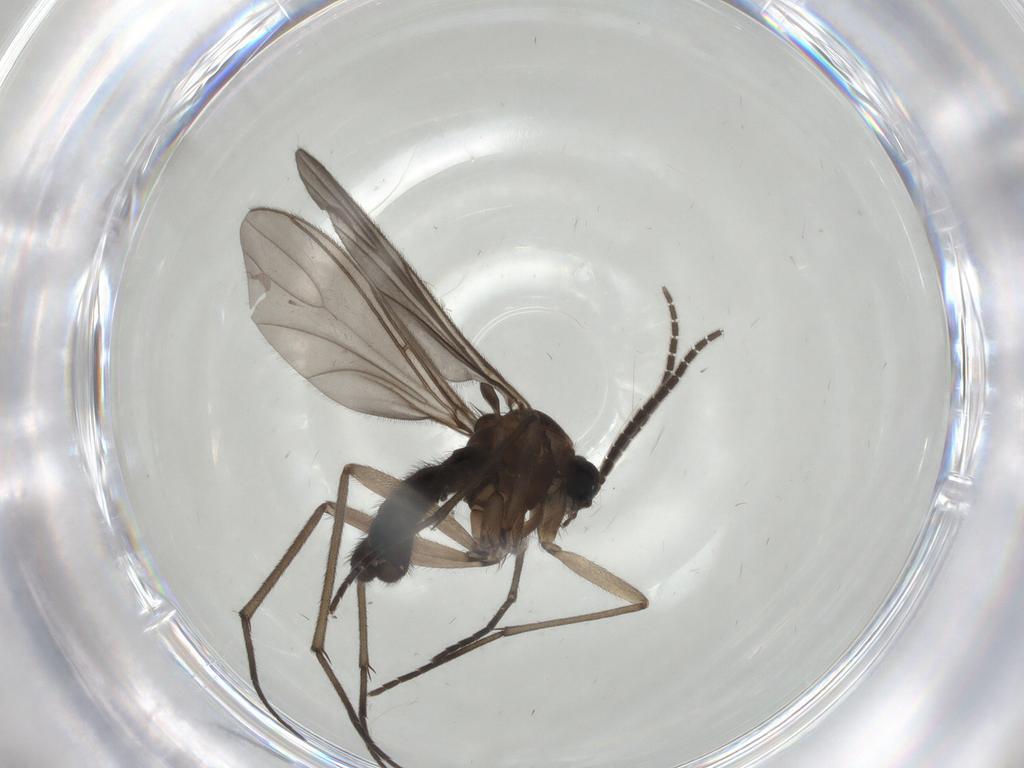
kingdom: Animalia
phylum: Arthropoda
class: Insecta
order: Diptera
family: Sciaridae
